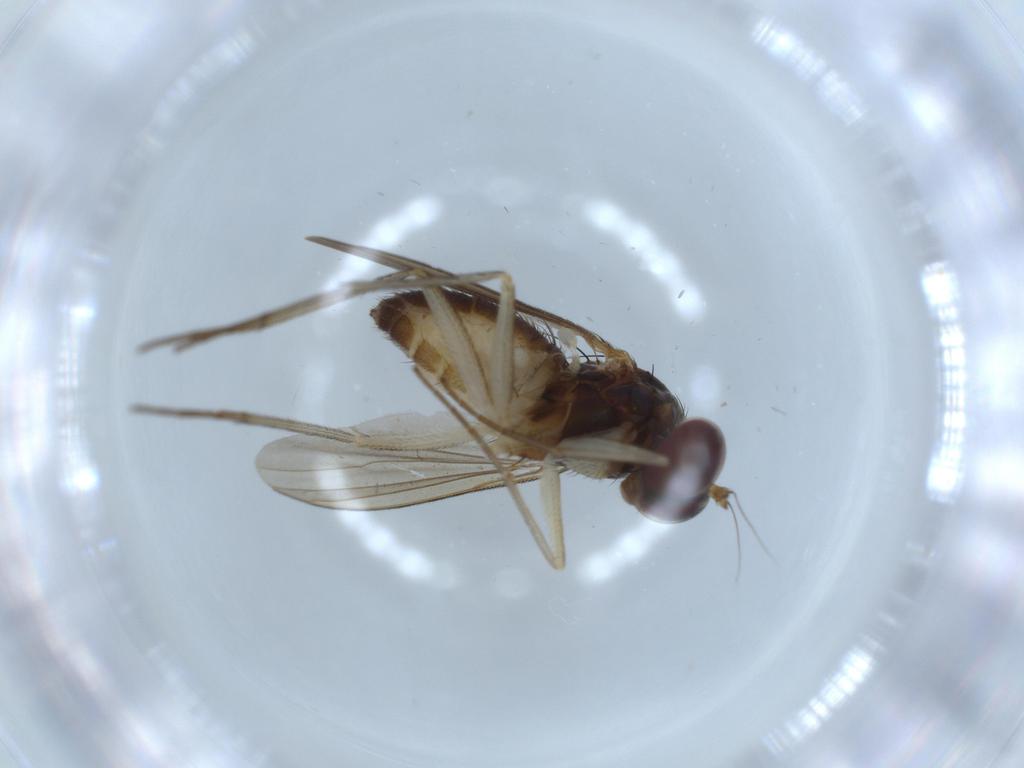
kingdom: Animalia
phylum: Arthropoda
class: Insecta
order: Diptera
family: Dolichopodidae
